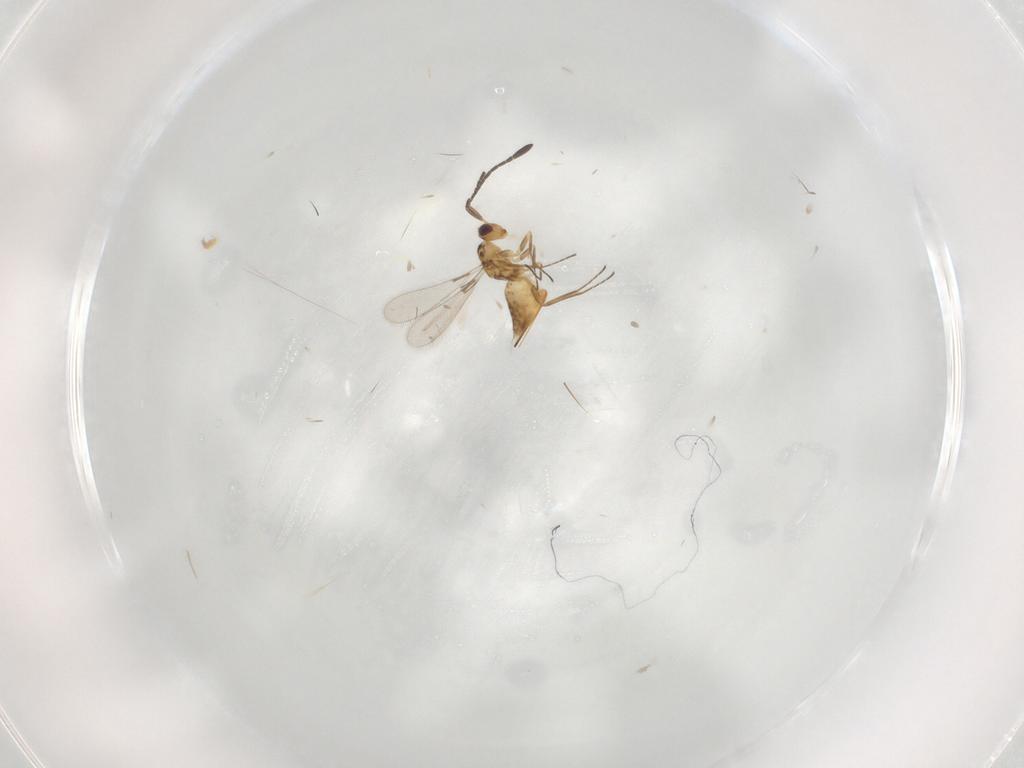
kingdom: Animalia
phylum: Arthropoda
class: Insecta
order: Hymenoptera
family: Mymaridae
